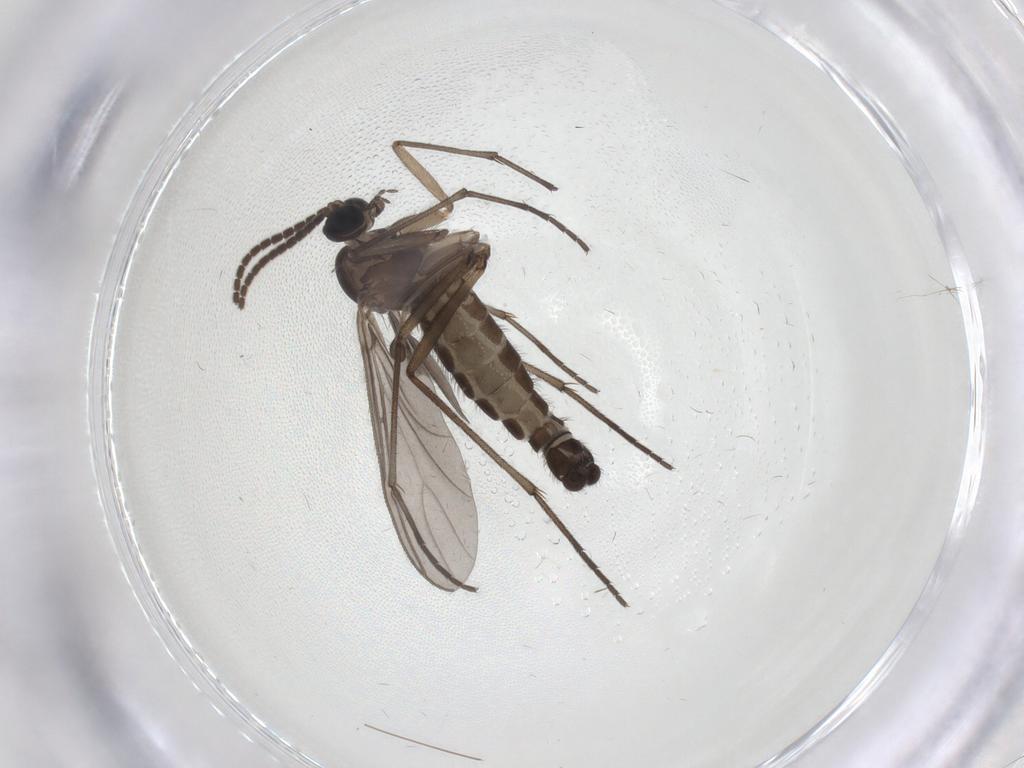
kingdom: Animalia
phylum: Arthropoda
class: Insecta
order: Diptera
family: Sciaridae
